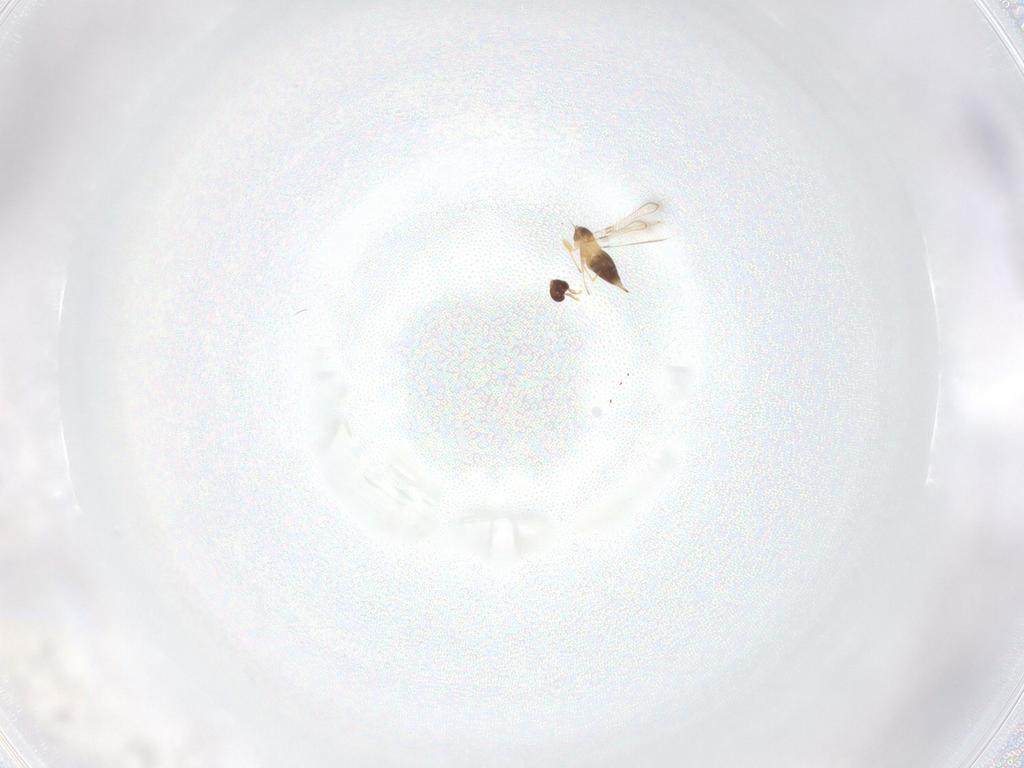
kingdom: Animalia
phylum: Arthropoda
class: Insecta
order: Hymenoptera
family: Mymaridae
